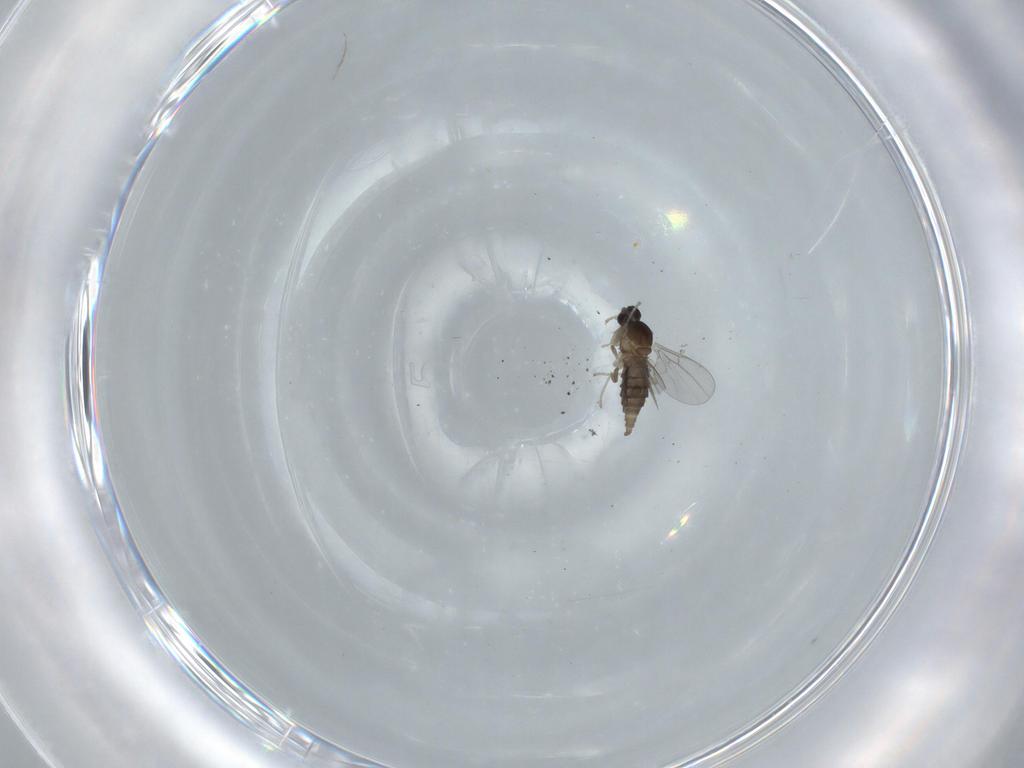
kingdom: Animalia
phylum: Arthropoda
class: Insecta
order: Diptera
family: Cecidomyiidae
